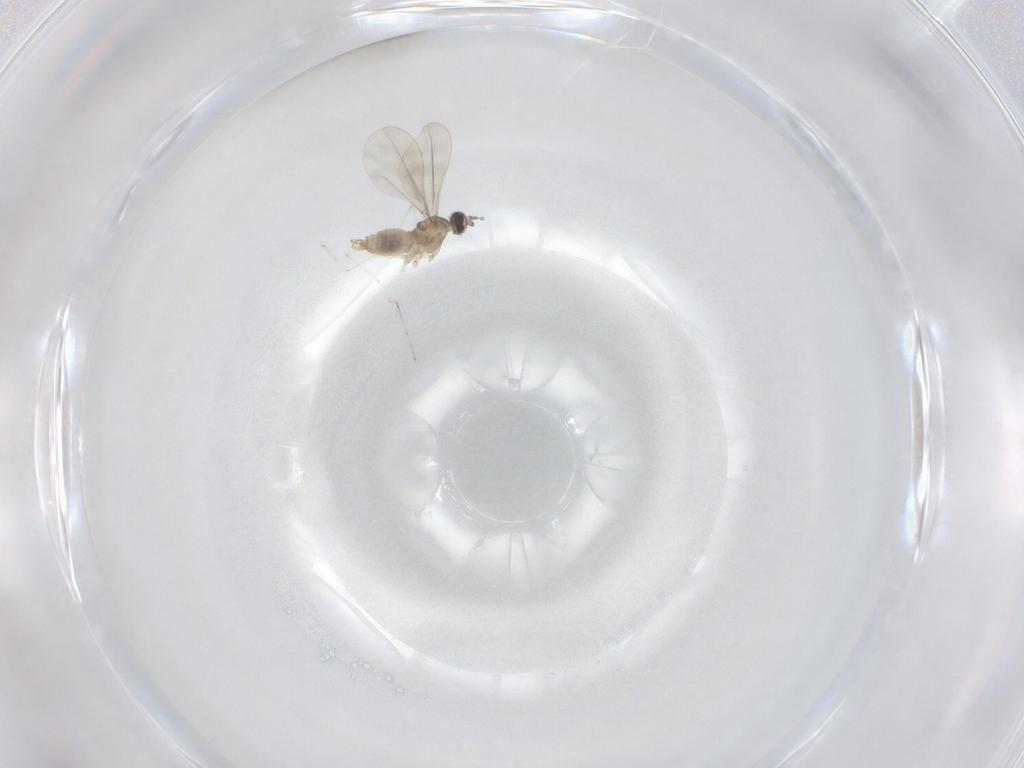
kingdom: Animalia
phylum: Arthropoda
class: Insecta
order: Diptera
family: Cecidomyiidae
